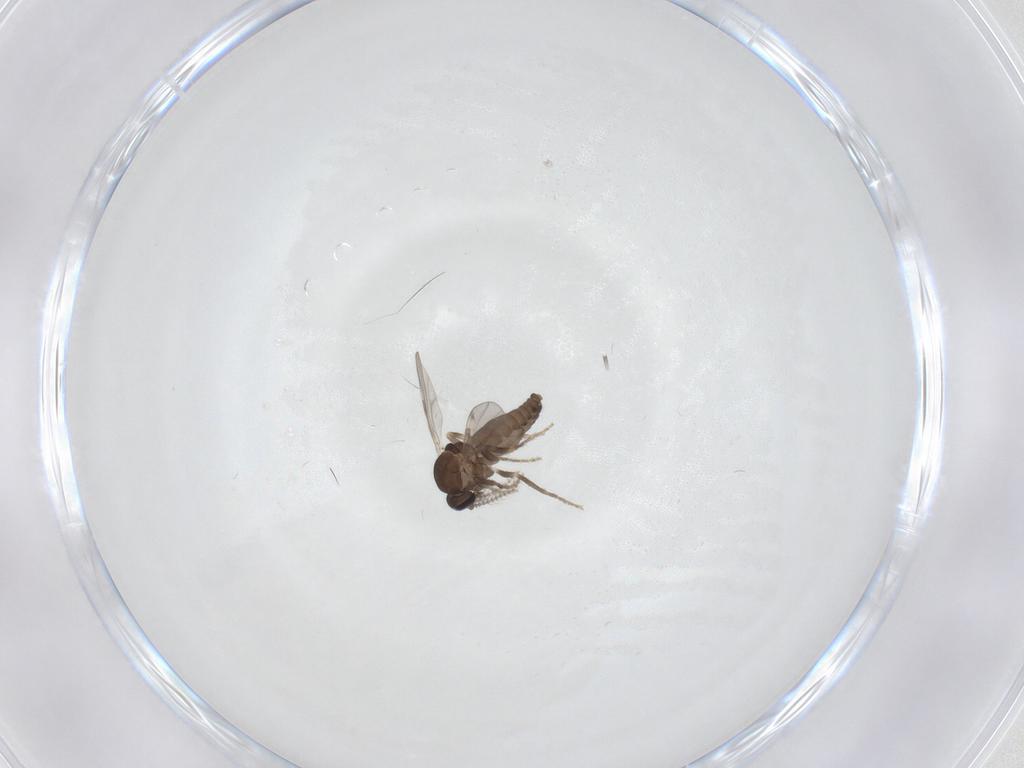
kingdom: Animalia
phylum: Arthropoda
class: Insecta
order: Diptera
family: Ceratopogonidae
